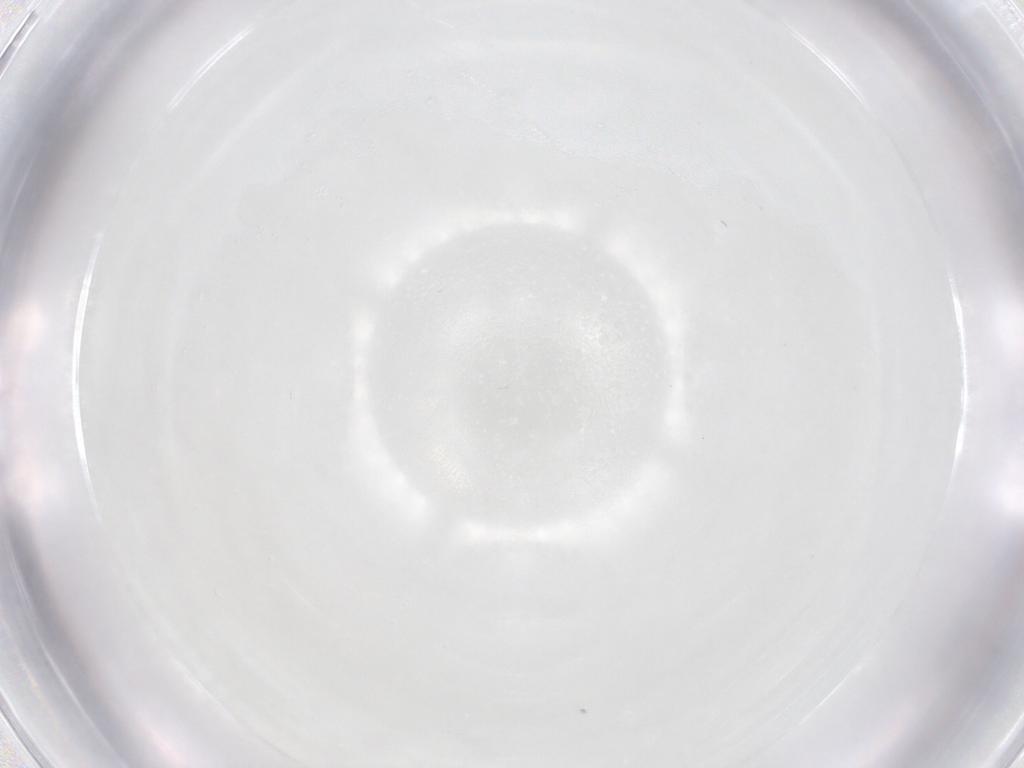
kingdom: Animalia
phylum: Arthropoda
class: Insecta
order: Hymenoptera
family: Eulophidae
